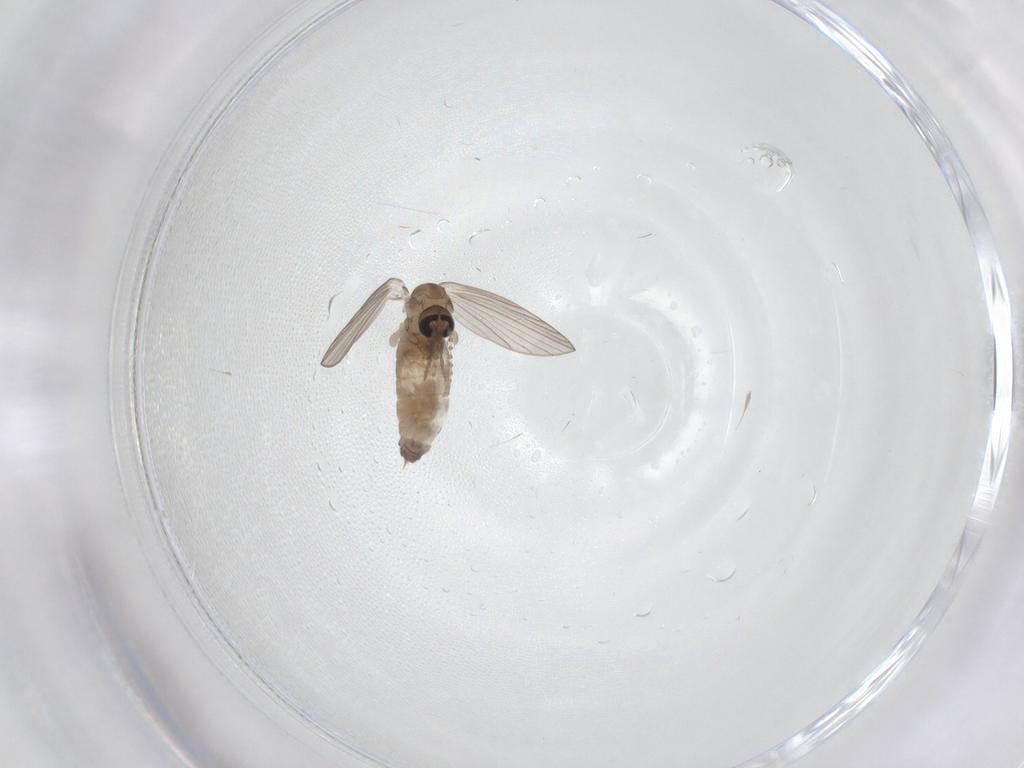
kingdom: Animalia
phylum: Arthropoda
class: Insecta
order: Diptera
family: Psychodidae
